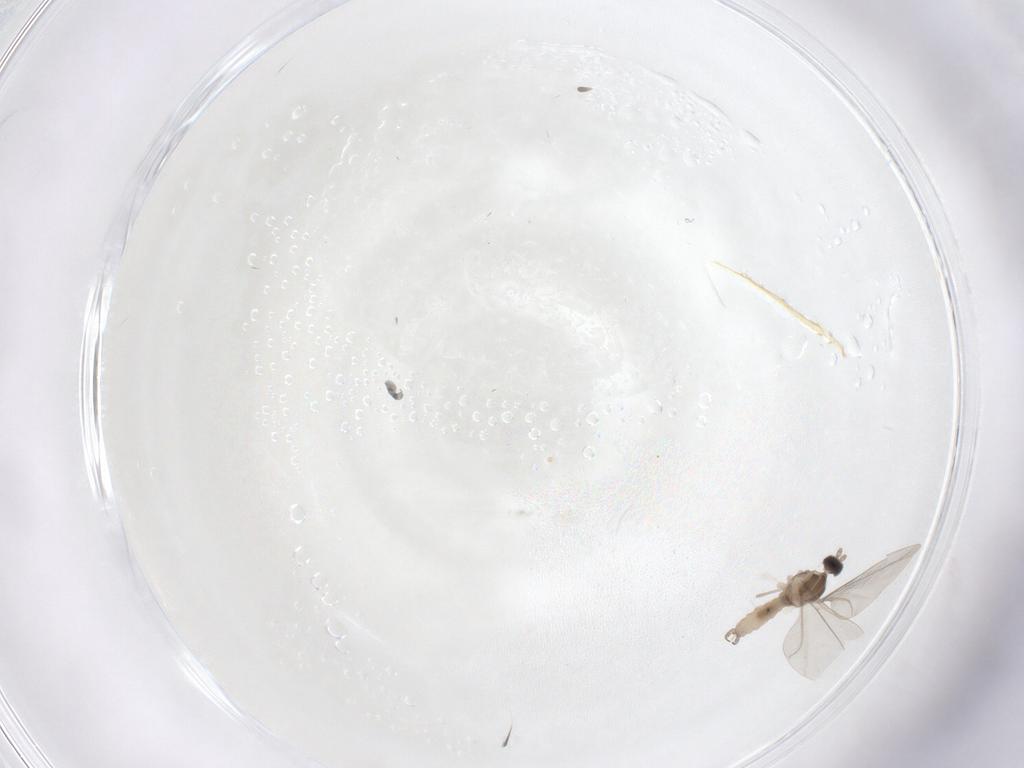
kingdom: Animalia
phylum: Arthropoda
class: Insecta
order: Diptera
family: Cecidomyiidae
